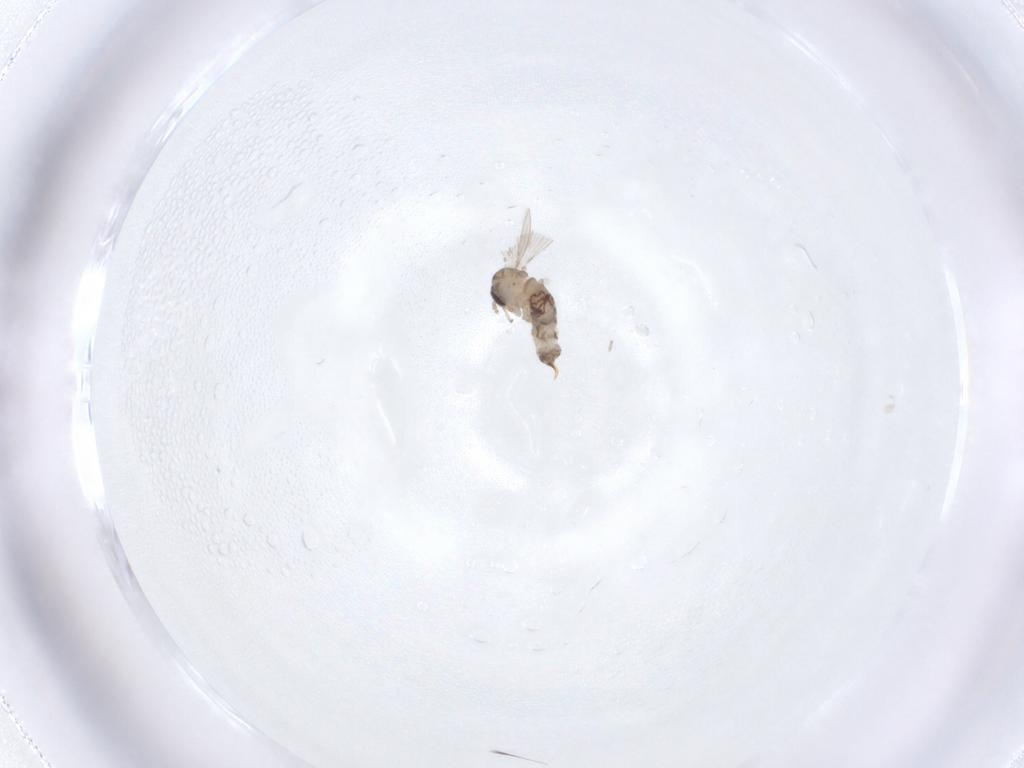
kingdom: Animalia
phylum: Arthropoda
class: Insecta
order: Diptera
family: Psychodidae
